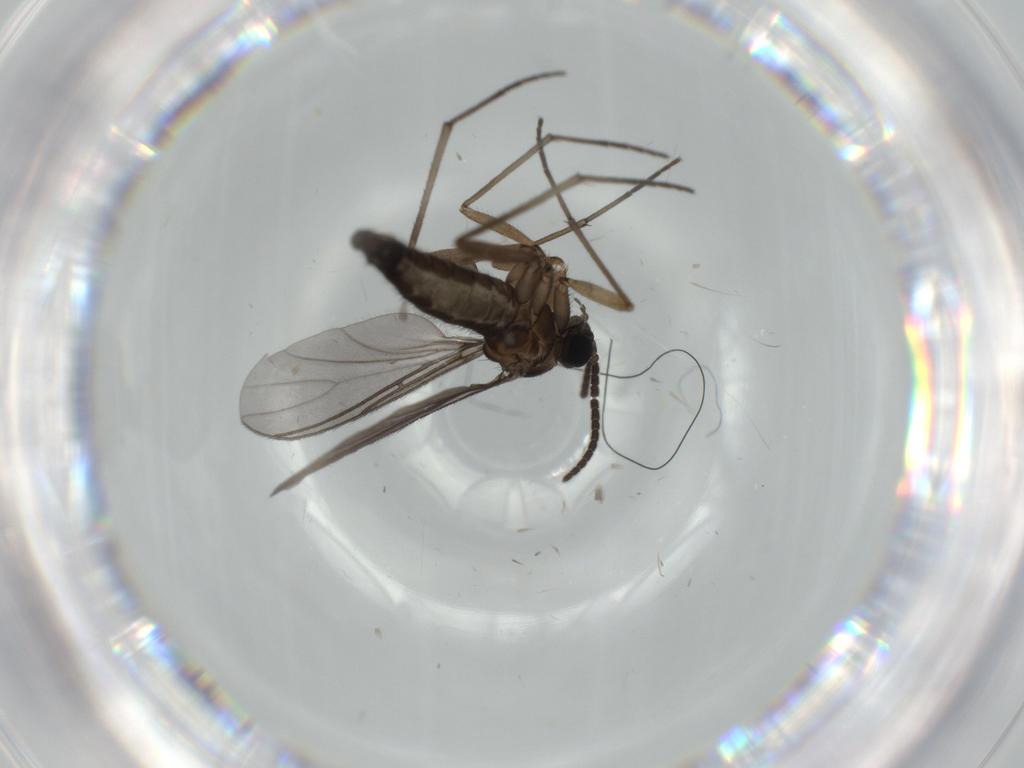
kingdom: Animalia
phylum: Arthropoda
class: Insecta
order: Diptera
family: Sciaridae
